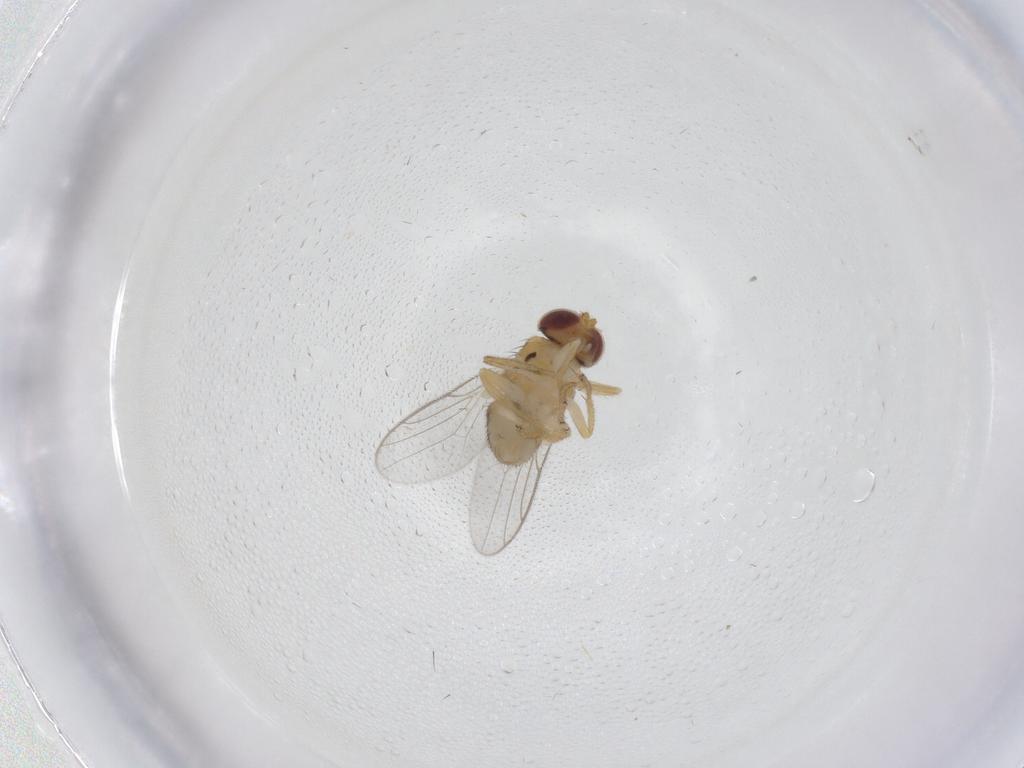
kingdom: Animalia
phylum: Arthropoda
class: Insecta
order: Diptera
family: Chloropidae
